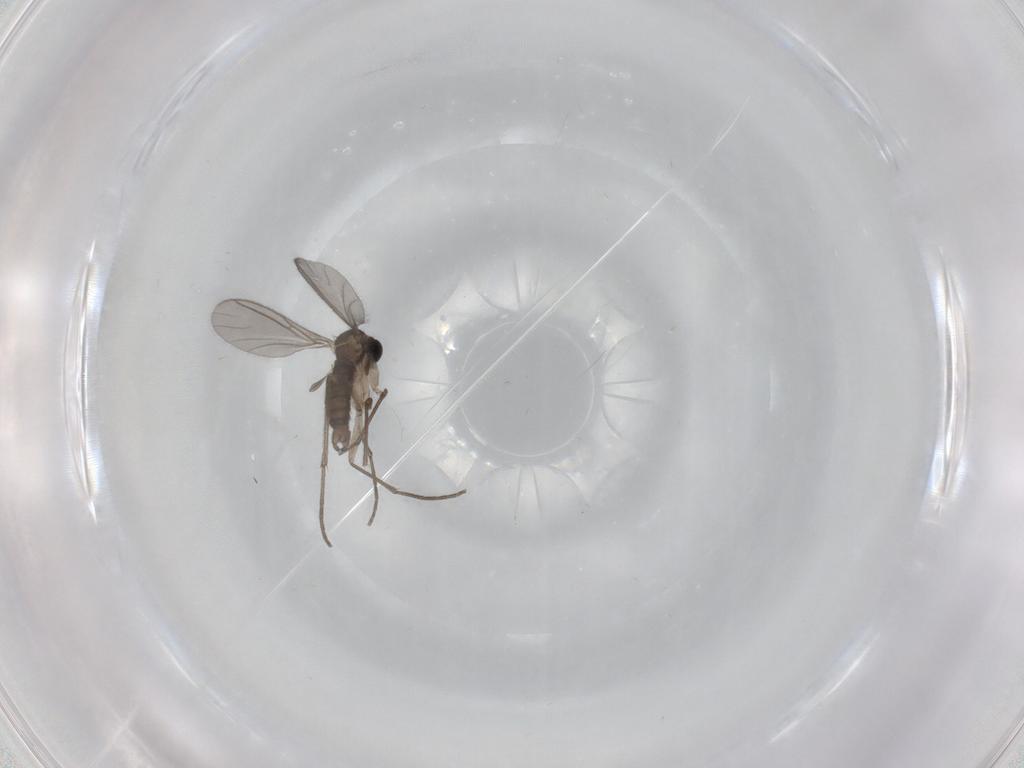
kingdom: Animalia
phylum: Arthropoda
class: Insecta
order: Diptera
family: Sciaridae
